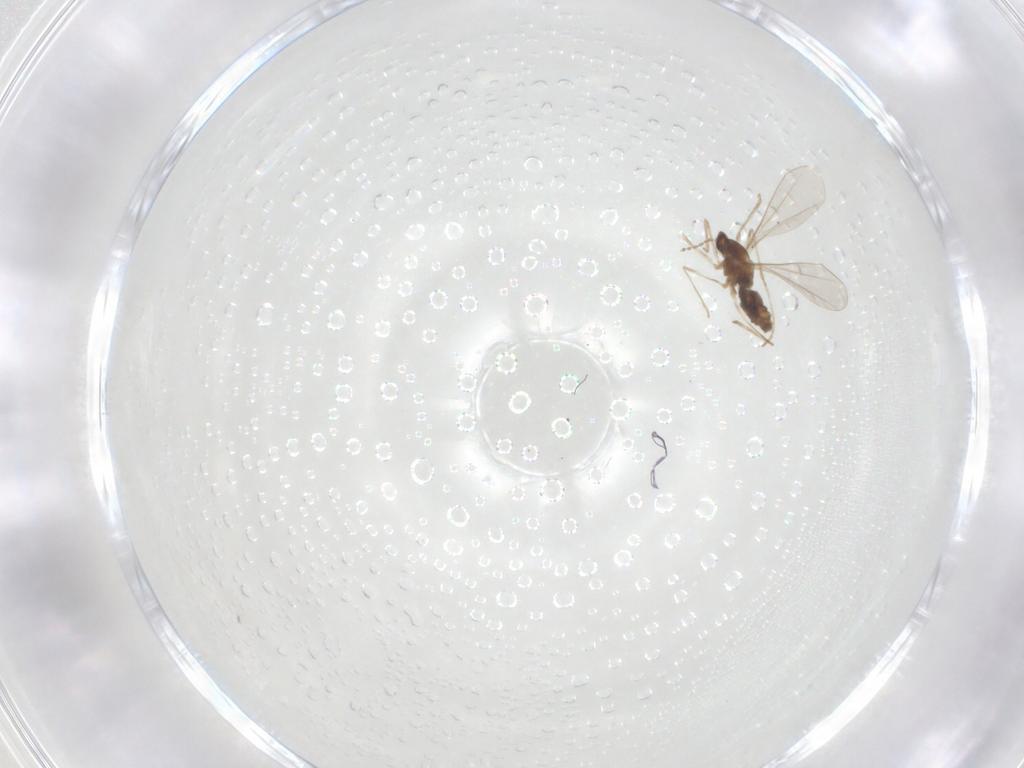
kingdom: Animalia
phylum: Arthropoda
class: Insecta
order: Diptera
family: Cecidomyiidae
